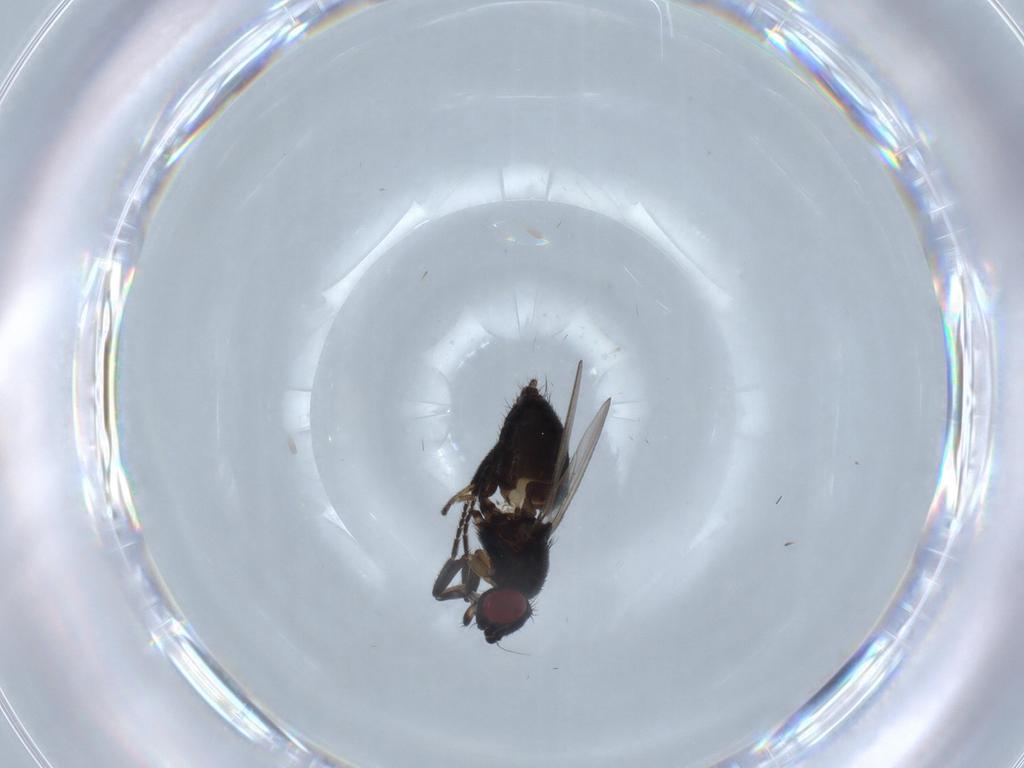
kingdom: Animalia
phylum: Arthropoda
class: Insecta
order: Diptera
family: Milichiidae
